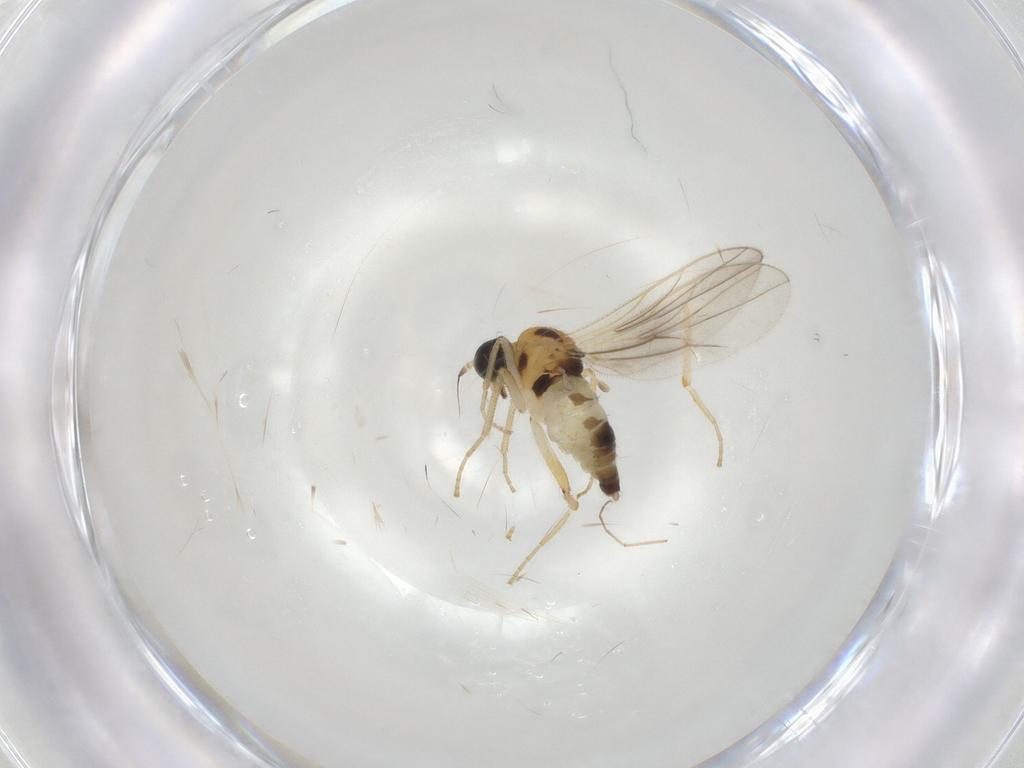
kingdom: Animalia
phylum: Arthropoda
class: Insecta
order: Diptera
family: Hybotidae
